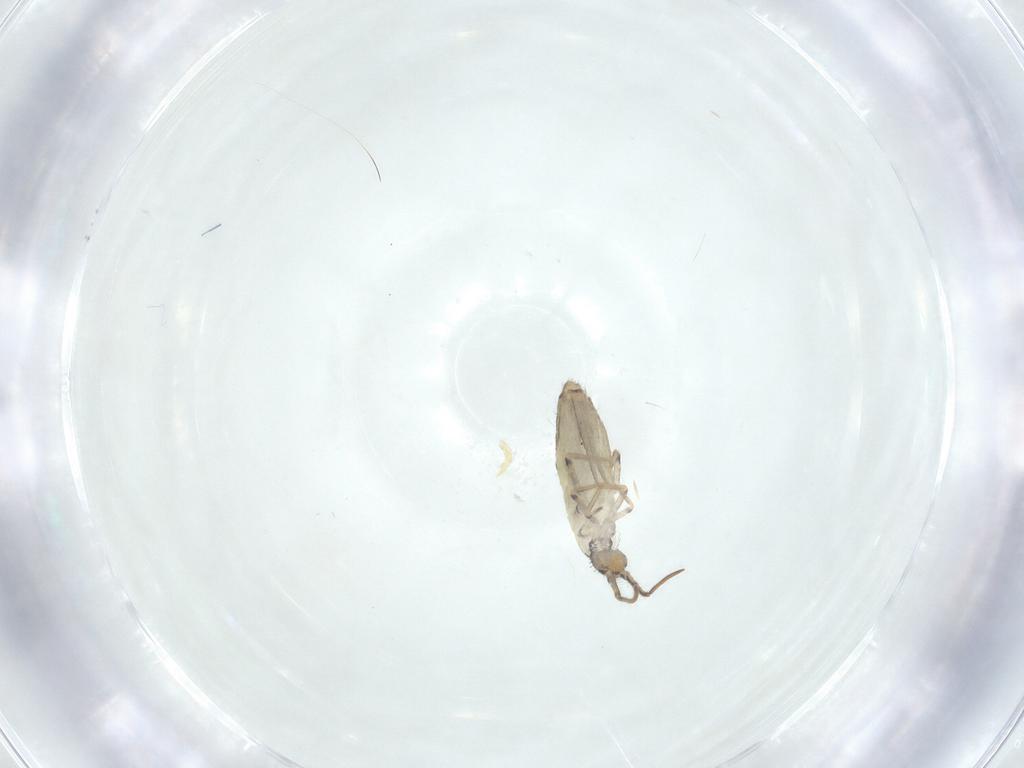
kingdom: Animalia
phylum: Arthropoda
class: Collembola
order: Entomobryomorpha
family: Entomobryidae
